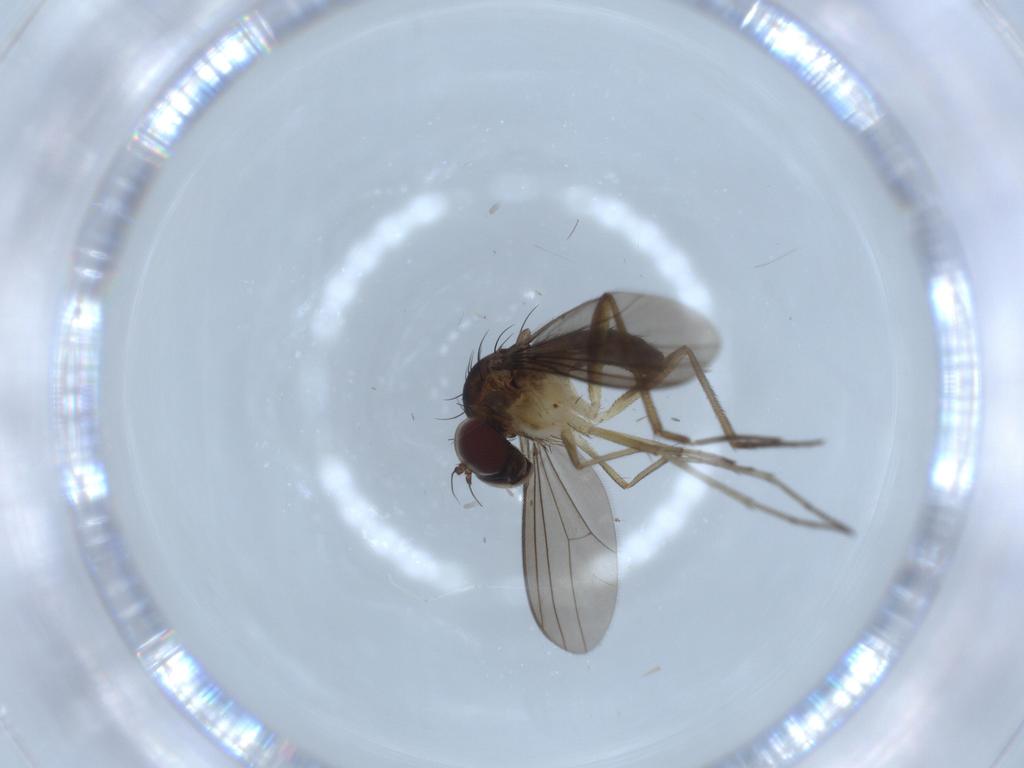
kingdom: Animalia
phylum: Arthropoda
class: Insecta
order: Diptera
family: Dolichopodidae
